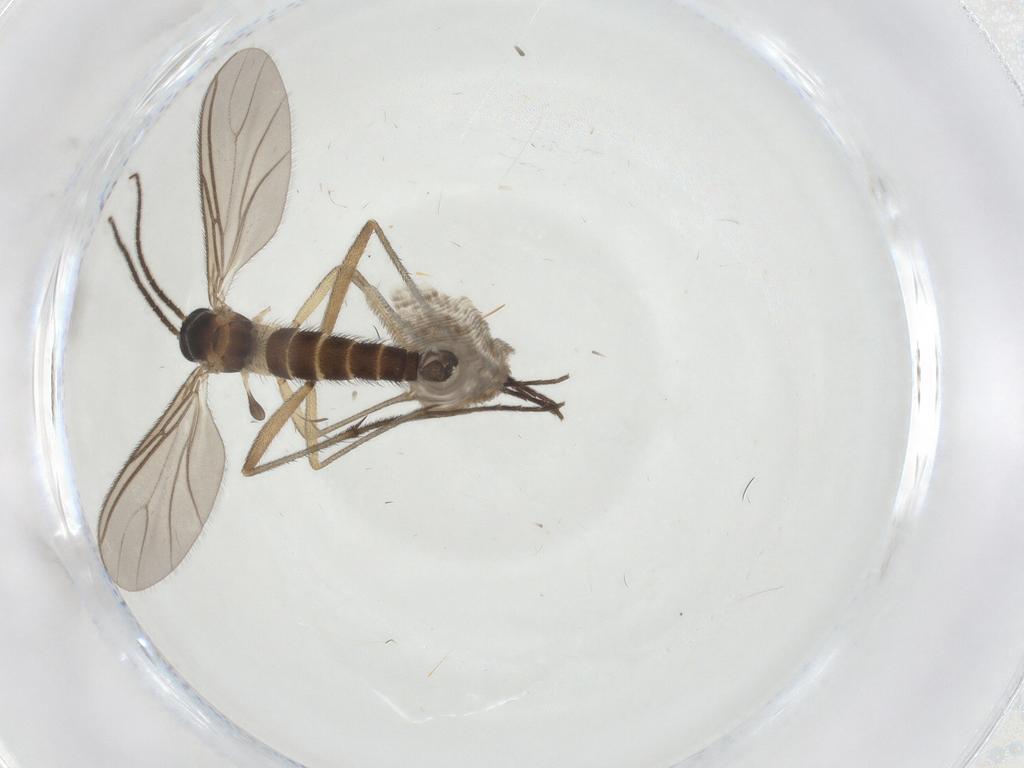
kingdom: Animalia
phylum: Arthropoda
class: Insecta
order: Diptera
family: Sciaridae
